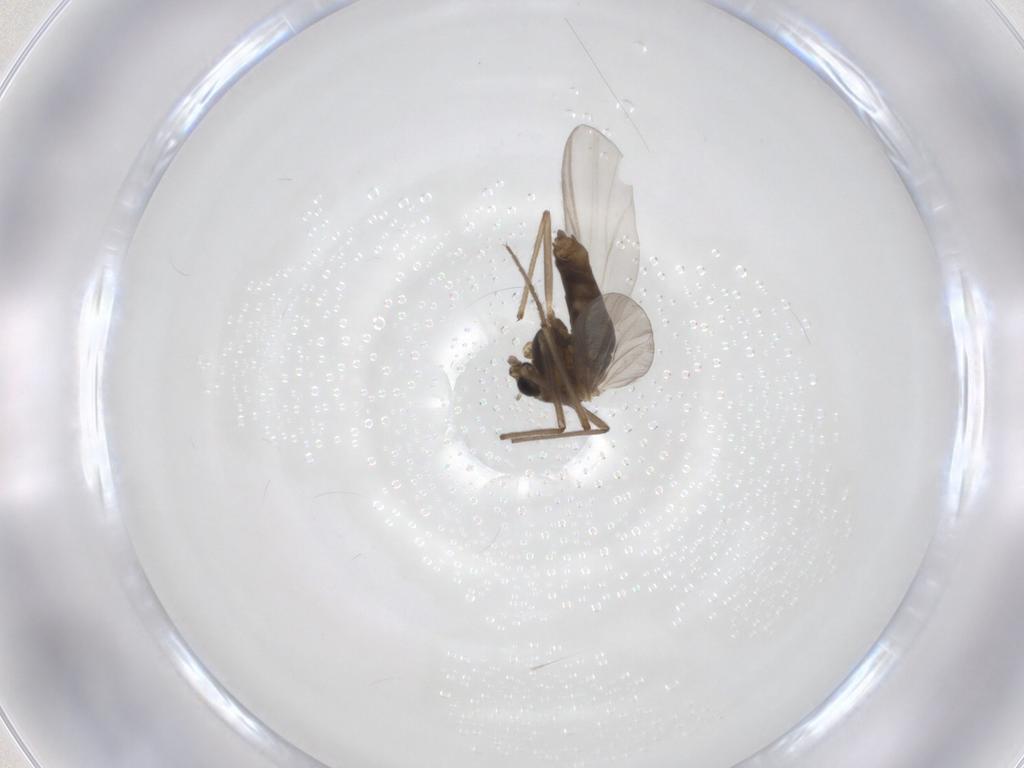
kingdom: Animalia
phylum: Arthropoda
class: Insecta
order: Diptera
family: Chironomidae
